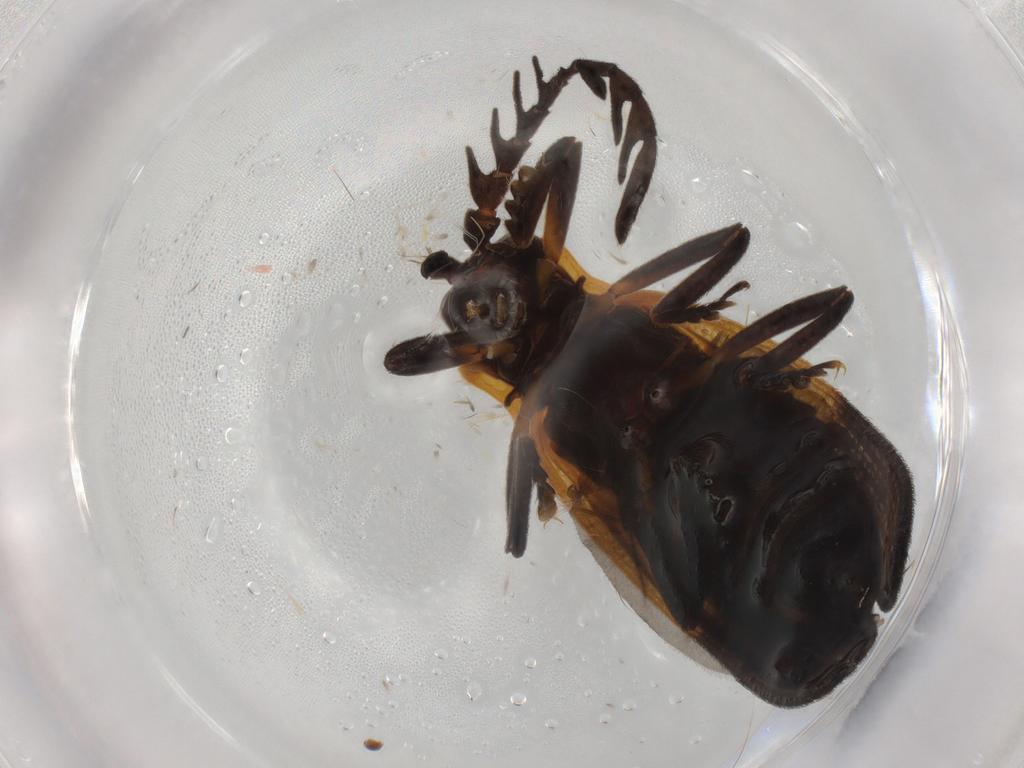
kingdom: Animalia
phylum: Arthropoda
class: Insecta
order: Coleoptera
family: Lycidae
